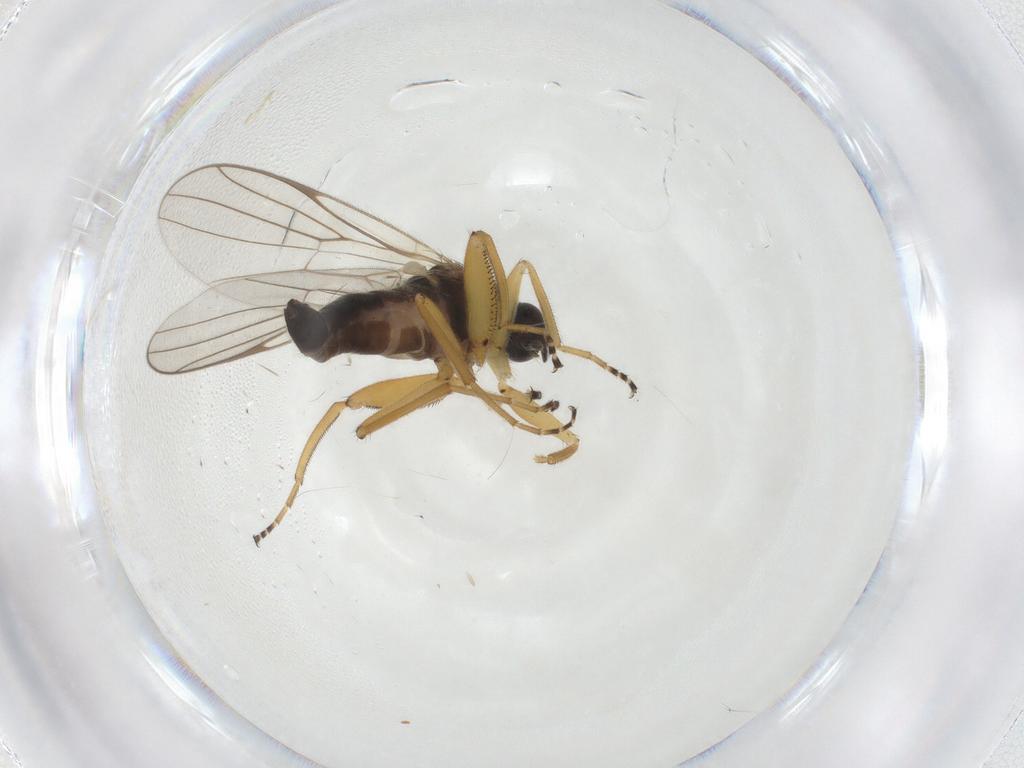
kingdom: Animalia
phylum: Arthropoda
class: Insecta
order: Diptera
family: Hybotidae
